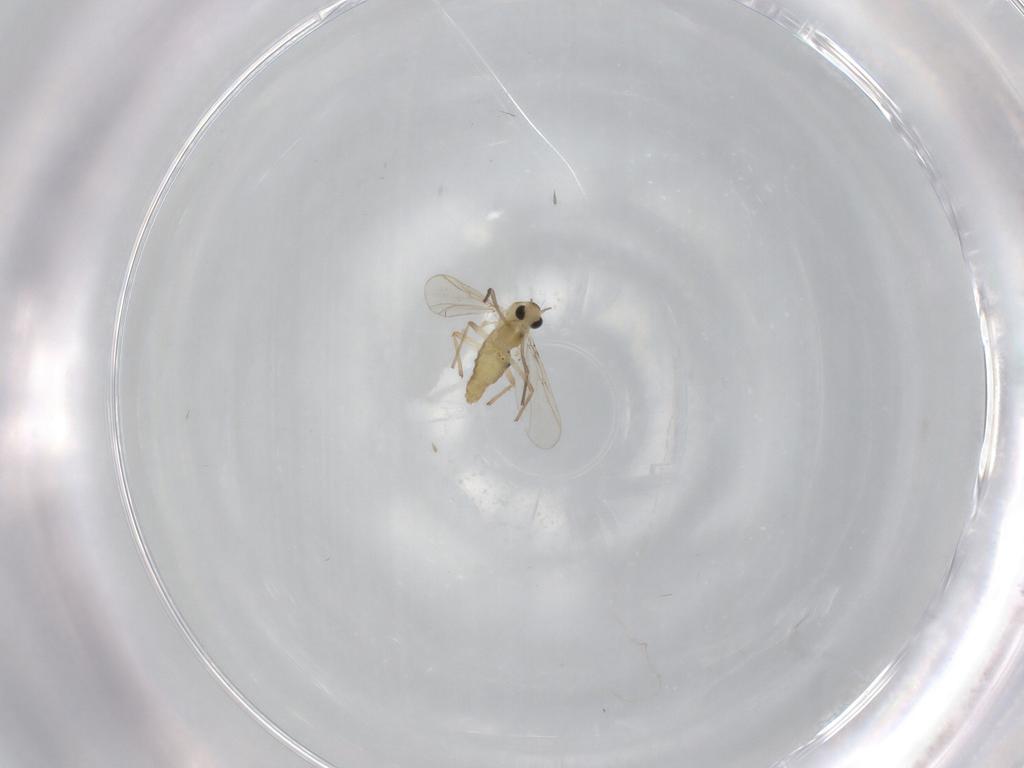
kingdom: Animalia
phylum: Arthropoda
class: Insecta
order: Diptera
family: Chironomidae
